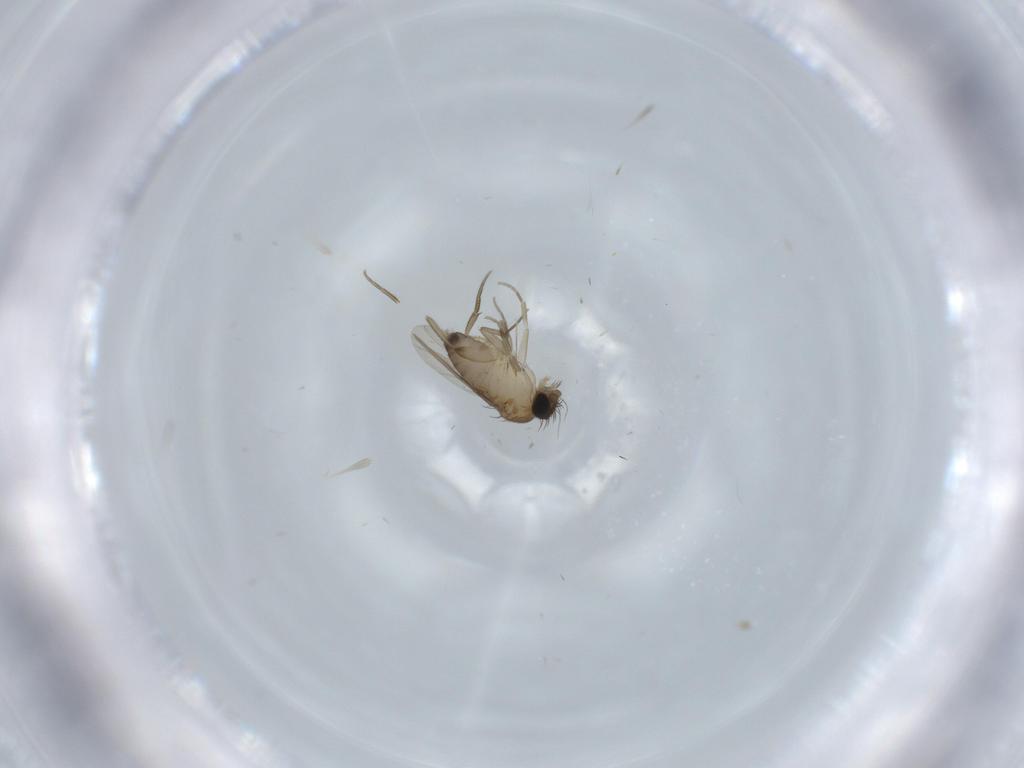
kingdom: Animalia
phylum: Arthropoda
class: Insecta
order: Diptera
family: Phoridae
